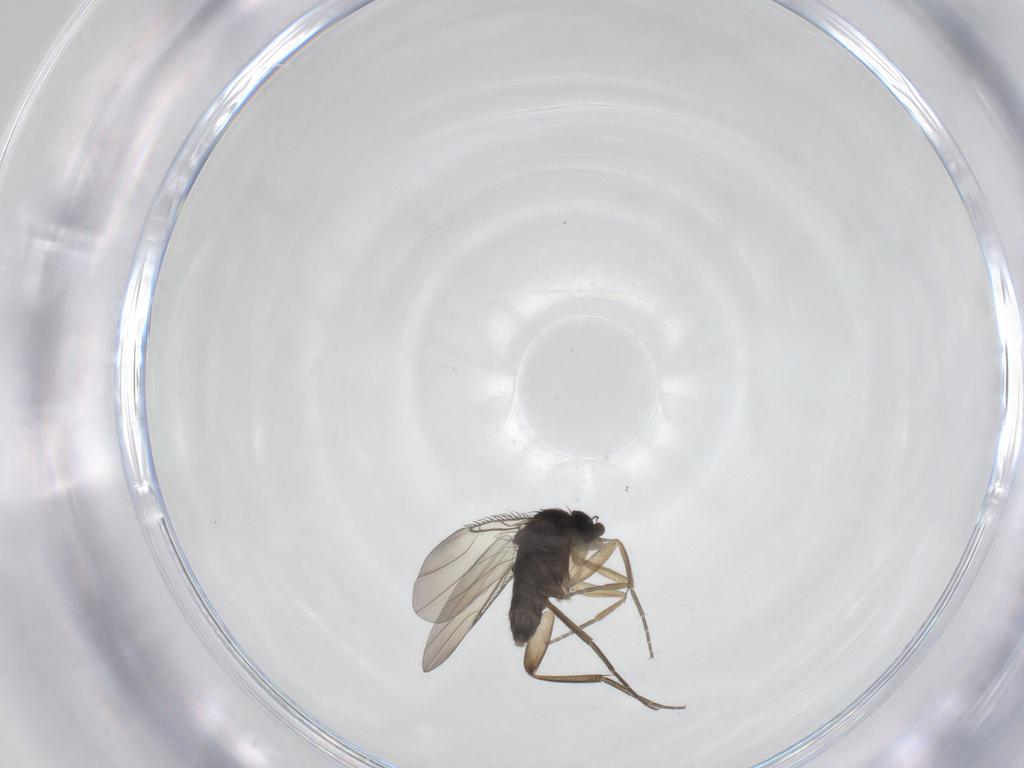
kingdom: Animalia
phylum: Arthropoda
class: Insecta
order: Diptera
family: Phoridae
